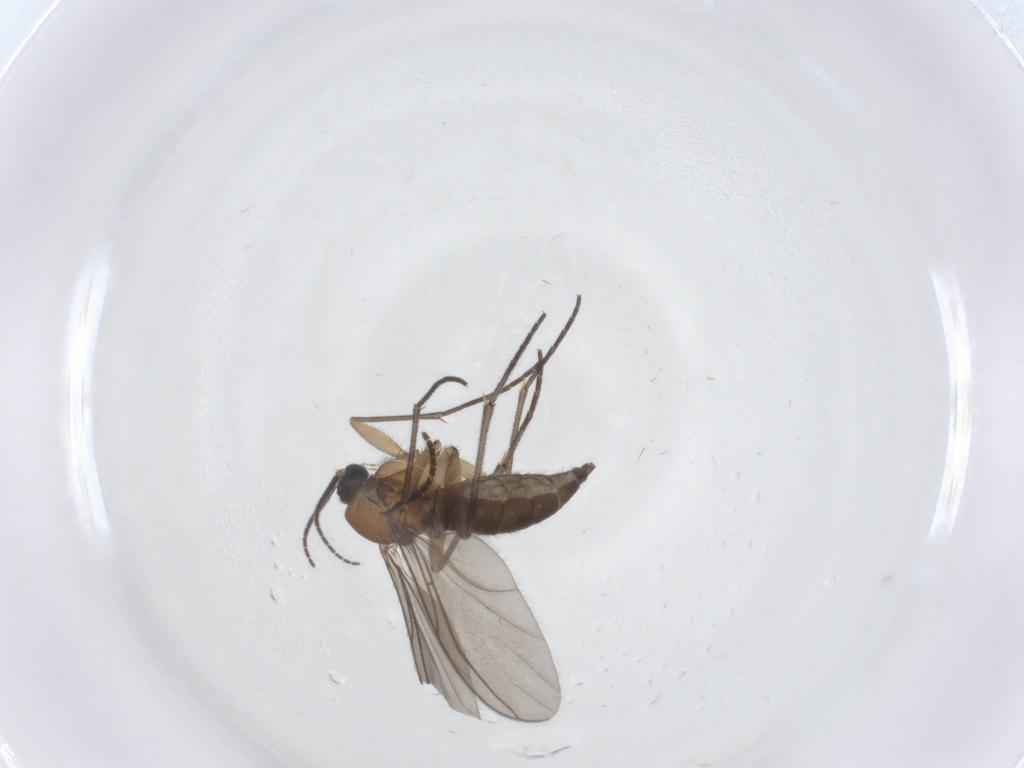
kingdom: Animalia
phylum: Arthropoda
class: Insecta
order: Diptera
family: Sciaridae
